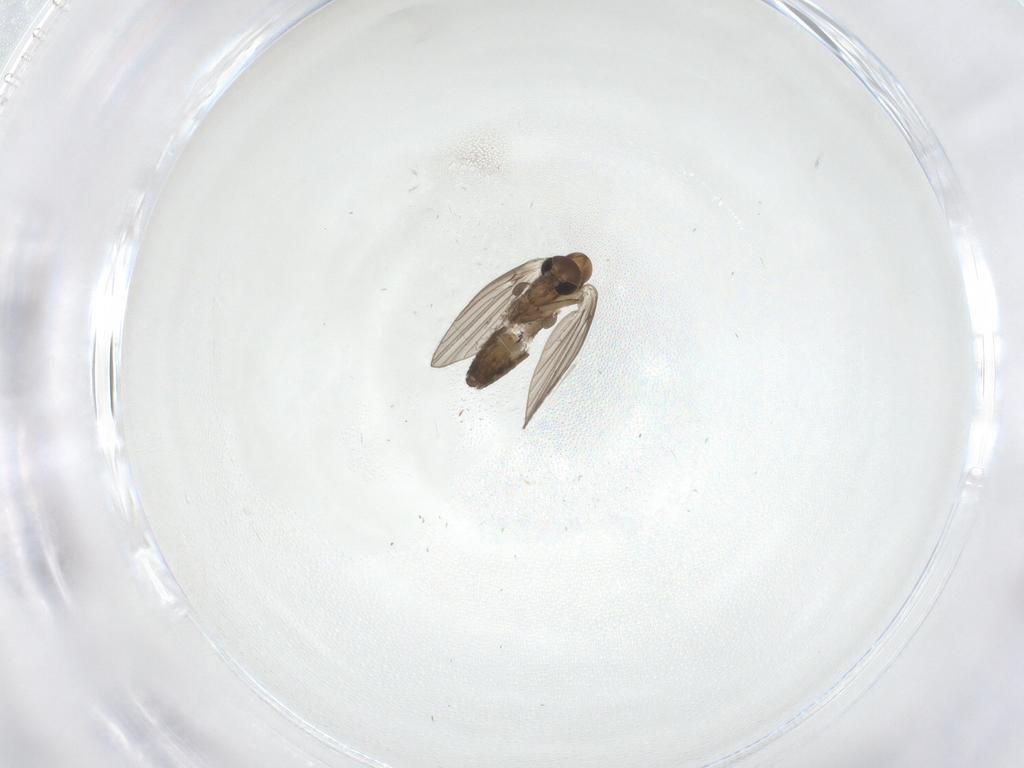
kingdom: Animalia
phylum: Arthropoda
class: Insecta
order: Diptera
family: Psychodidae
